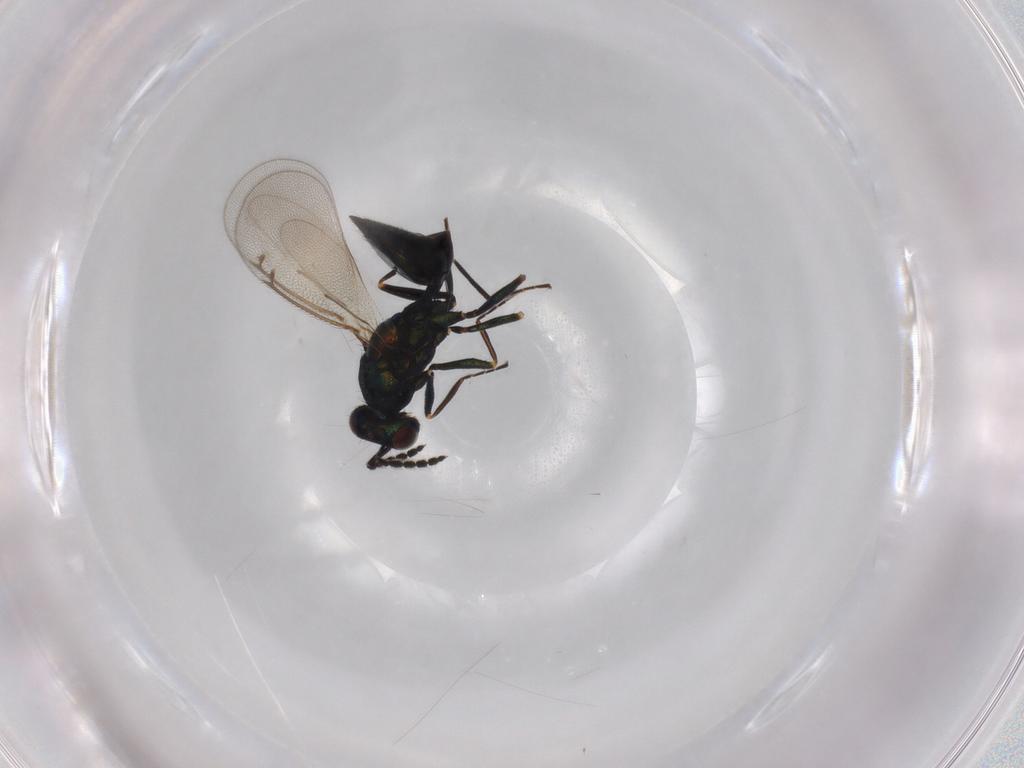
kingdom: Animalia
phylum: Arthropoda
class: Insecta
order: Hymenoptera
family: Eulophidae
